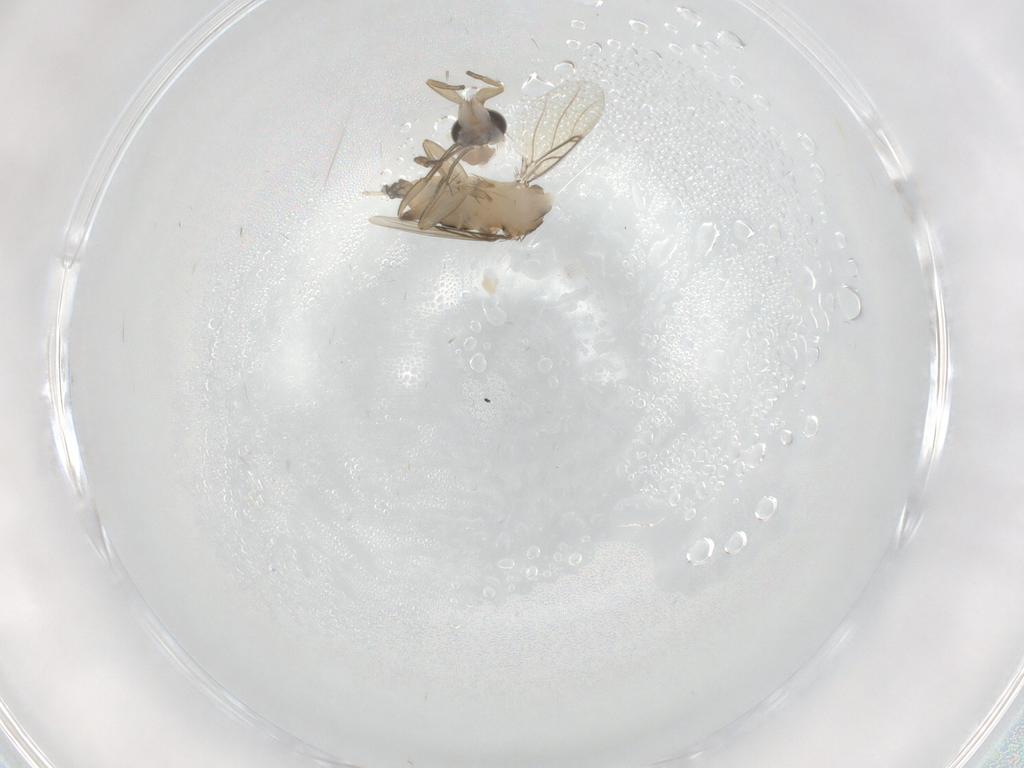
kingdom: Animalia
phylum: Arthropoda
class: Insecta
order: Diptera
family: Phoridae
